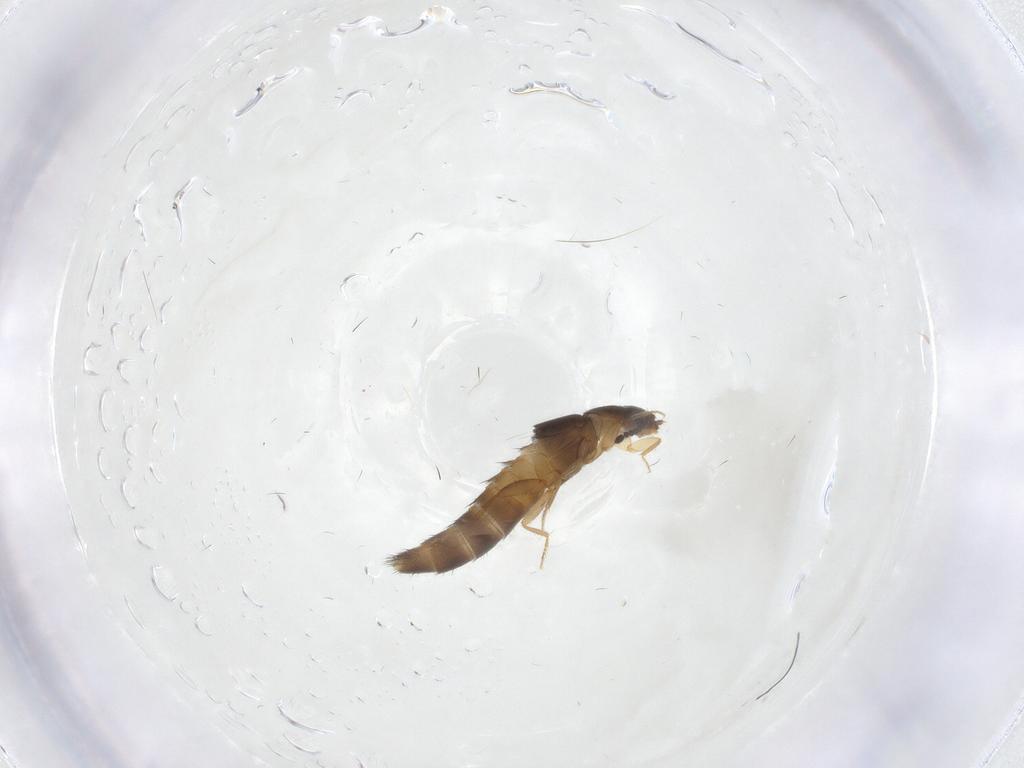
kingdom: Animalia
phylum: Arthropoda
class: Insecta
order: Coleoptera
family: Staphylinidae
